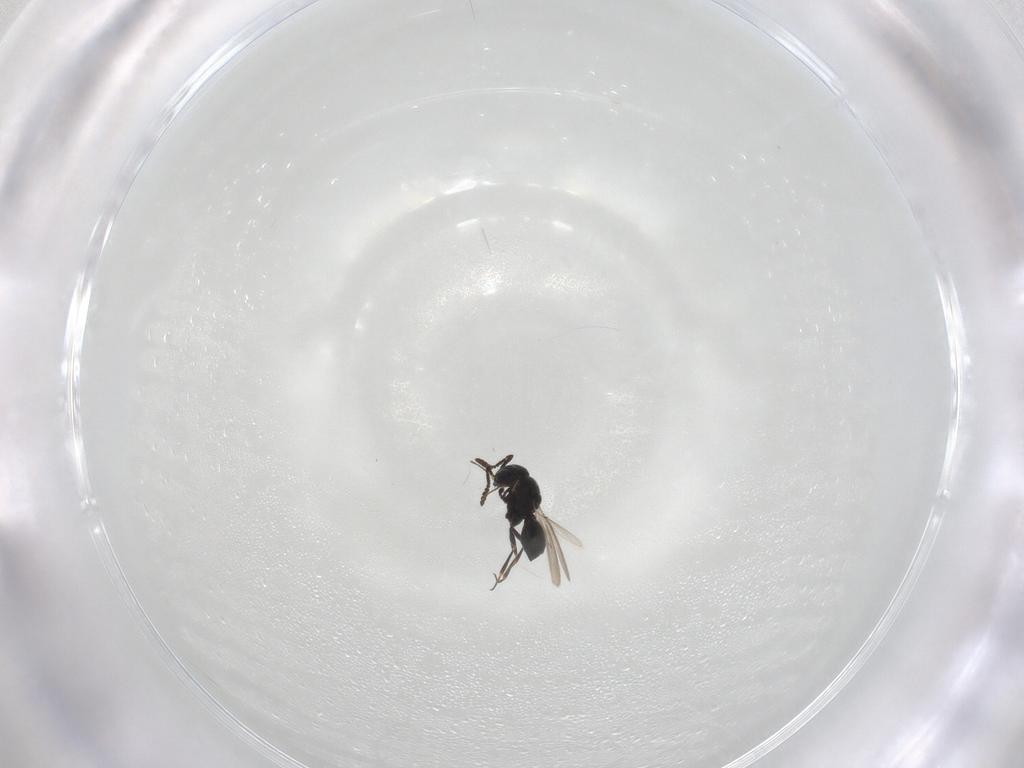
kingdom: Animalia
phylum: Arthropoda
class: Insecta
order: Hymenoptera
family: Scelionidae
